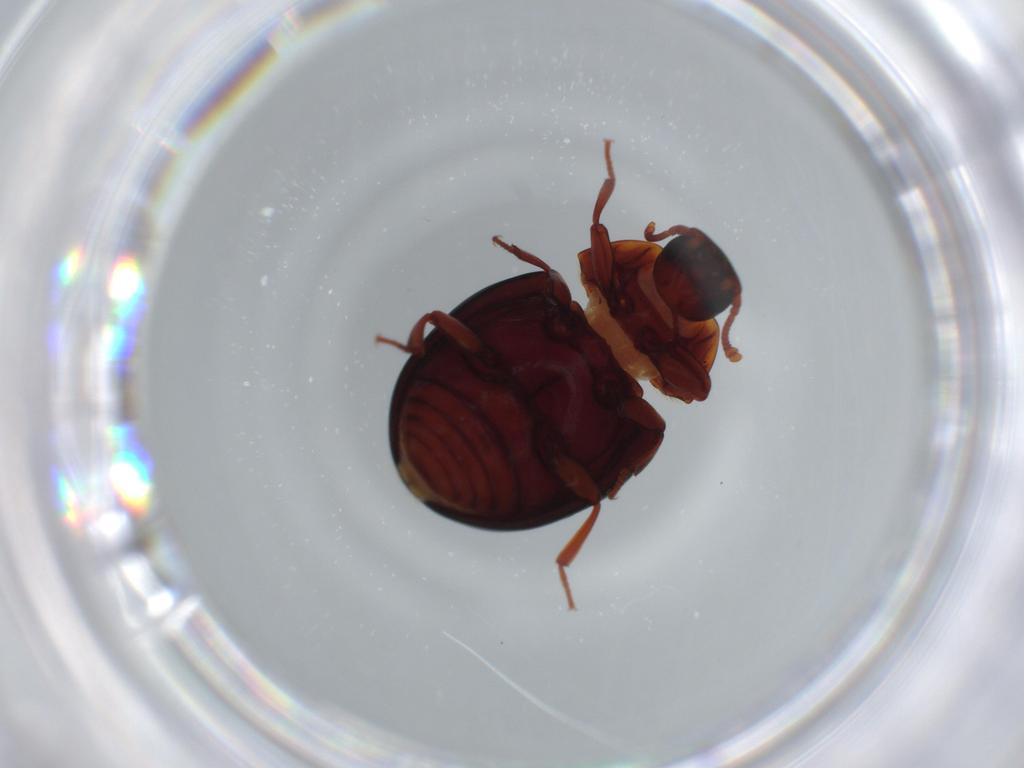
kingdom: Animalia
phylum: Arthropoda
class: Insecta
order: Coleoptera
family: Zopheridae
